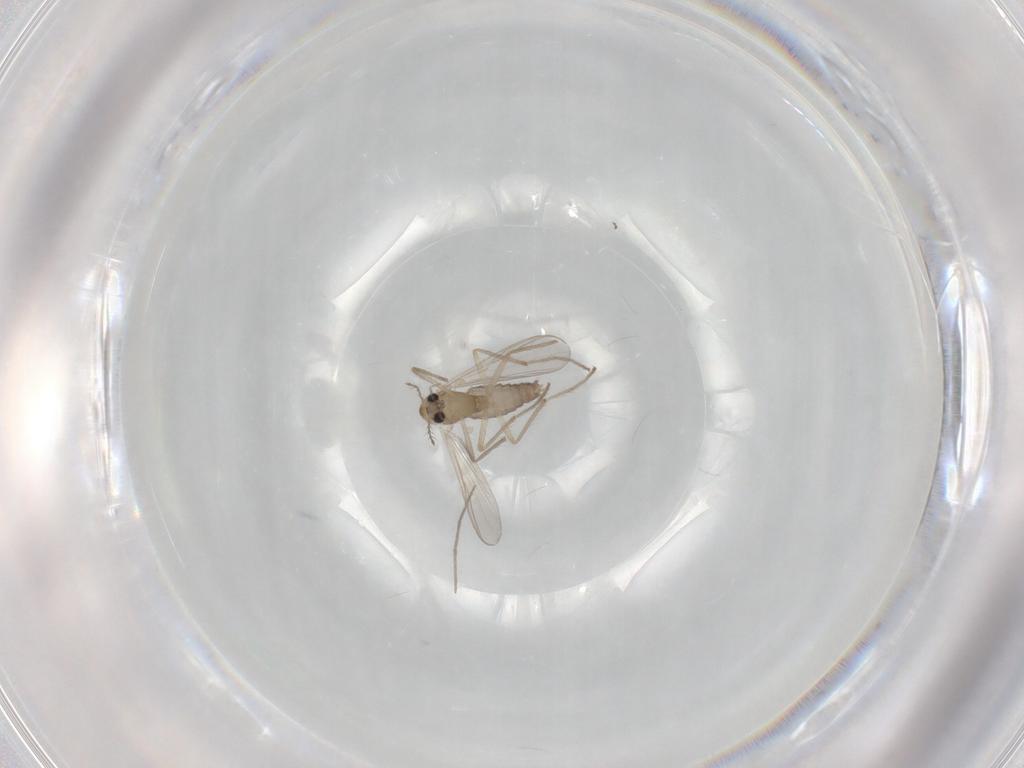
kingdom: Animalia
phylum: Arthropoda
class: Insecta
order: Diptera
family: Chironomidae
